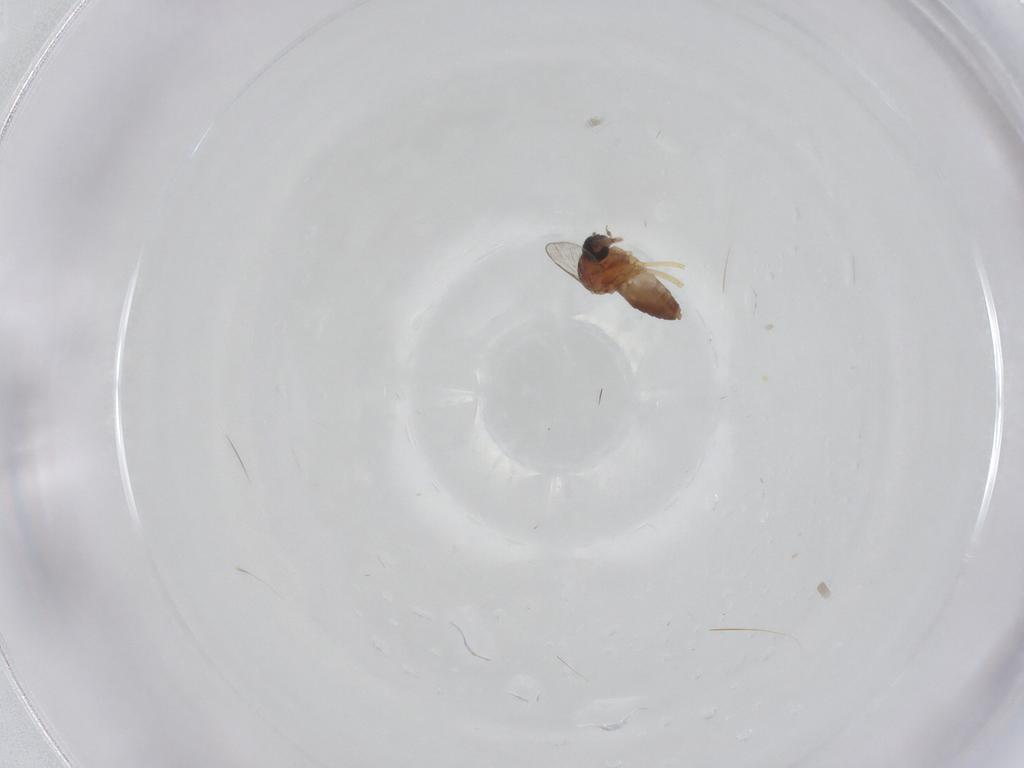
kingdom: Animalia
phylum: Arthropoda
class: Insecta
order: Diptera
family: Ceratopogonidae
